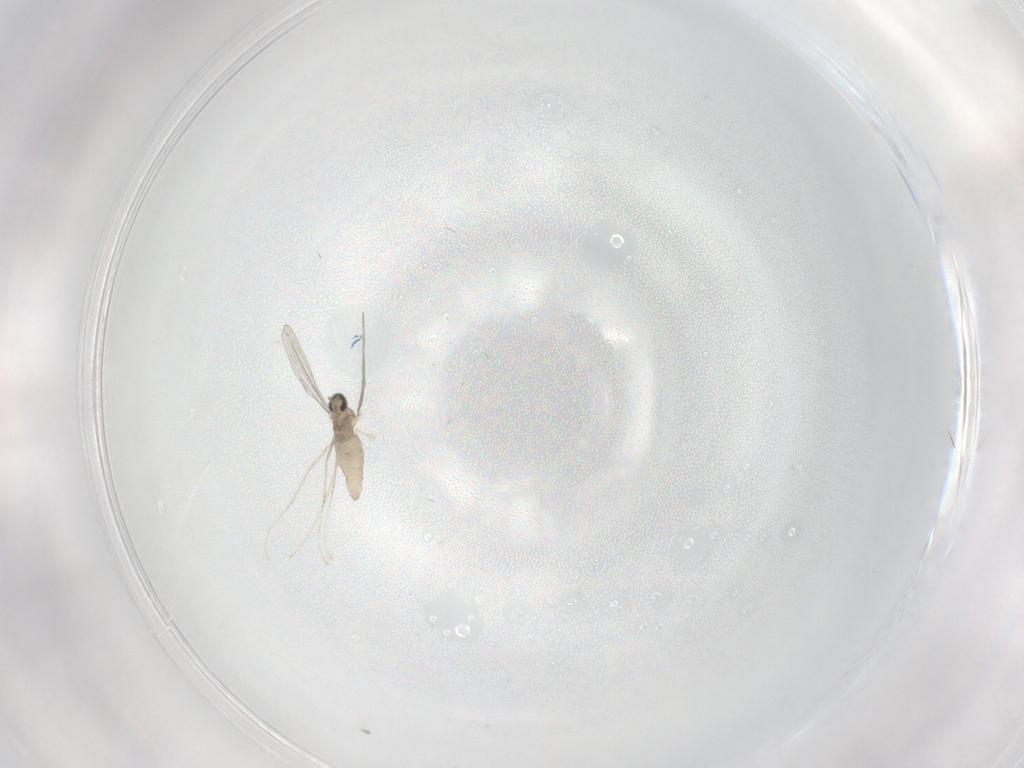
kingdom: Animalia
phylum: Arthropoda
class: Insecta
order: Diptera
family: Cecidomyiidae
